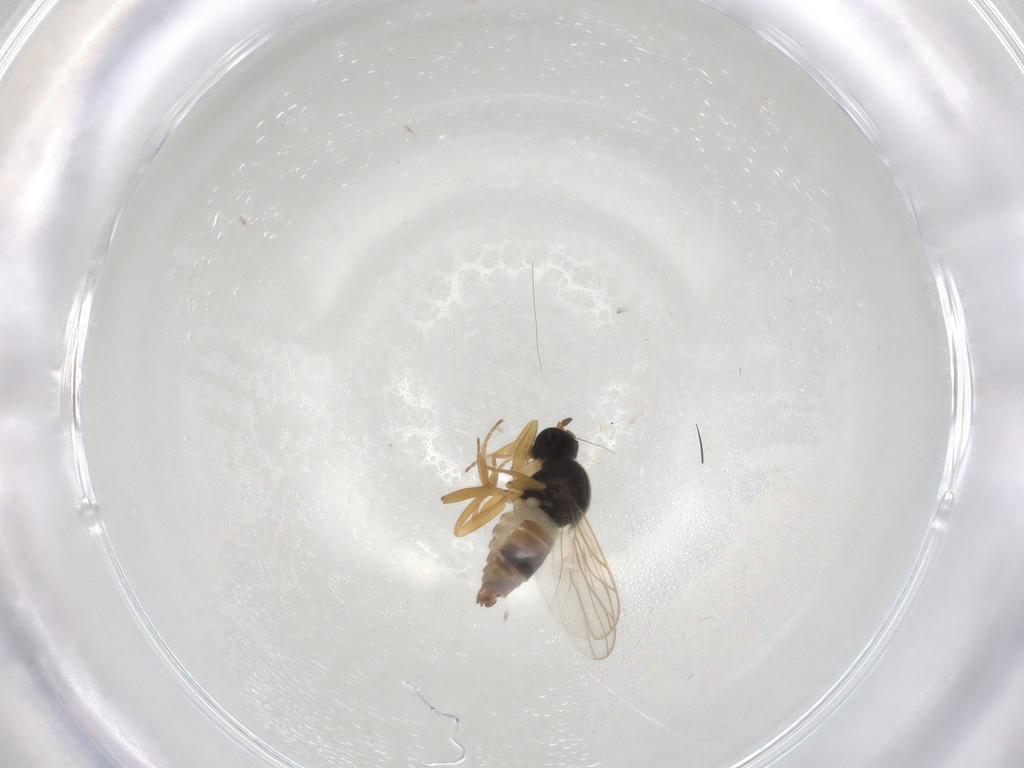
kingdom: Animalia
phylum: Arthropoda
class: Insecta
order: Diptera
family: Hybotidae
